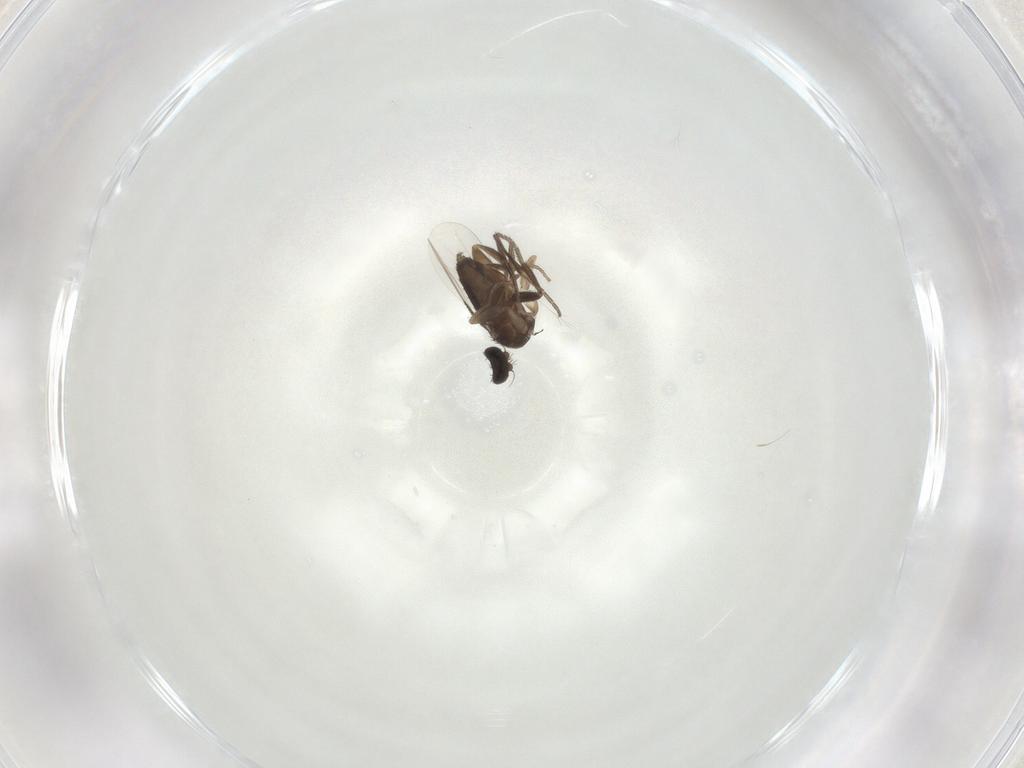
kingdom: Animalia
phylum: Arthropoda
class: Insecta
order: Diptera
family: Phoridae
